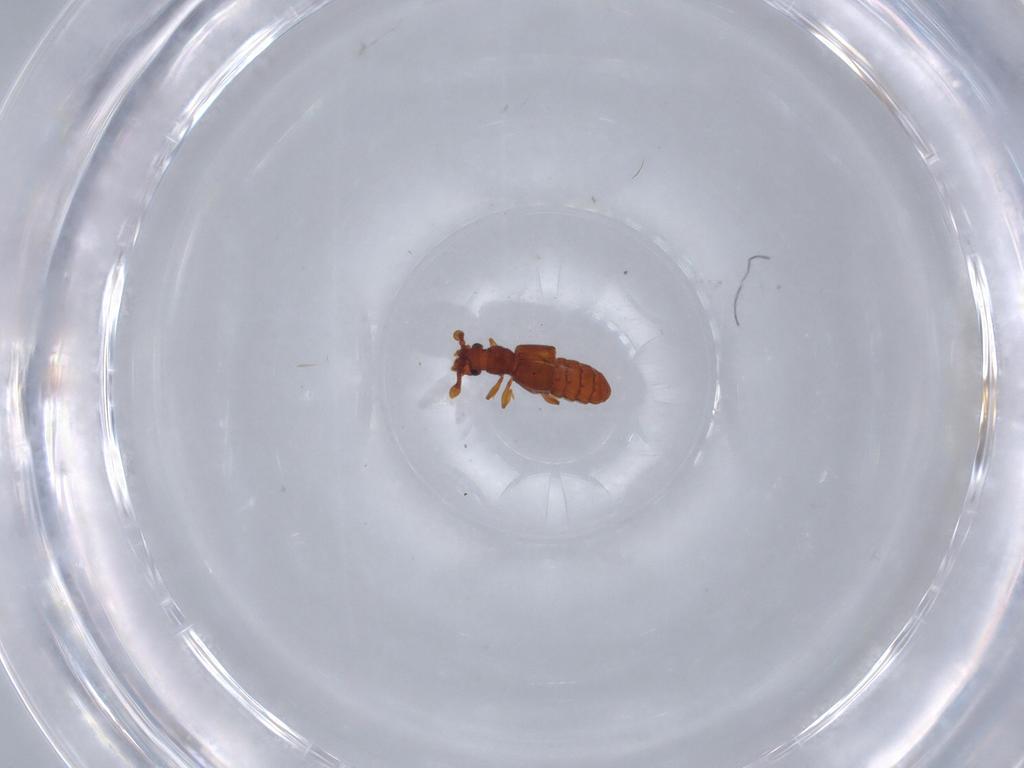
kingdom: Animalia
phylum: Arthropoda
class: Insecta
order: Coleoptera
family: Staphylinidae
